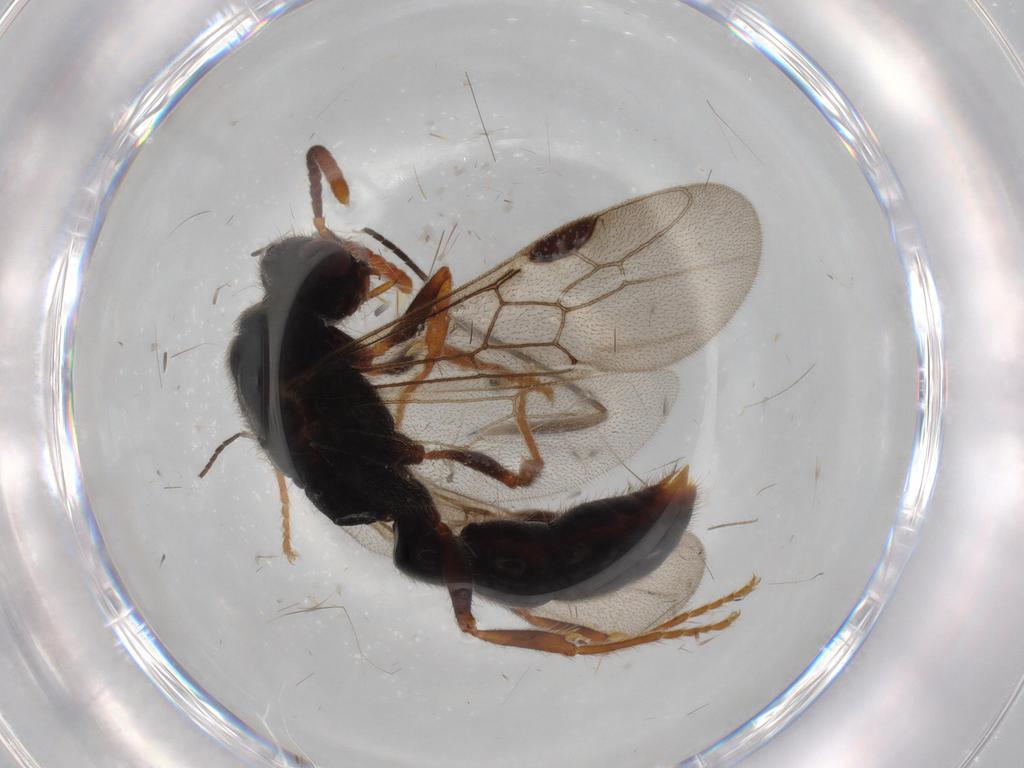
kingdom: Animalia
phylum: Arthropoda
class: Insecta
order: Hymenoptera
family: Formicidae
